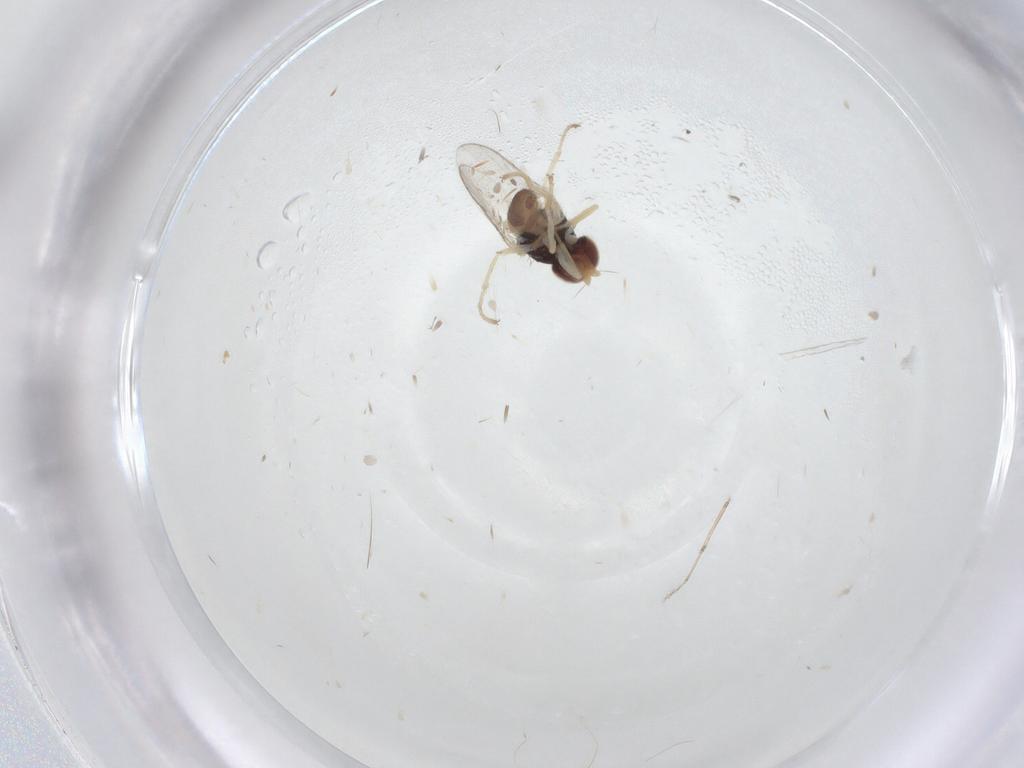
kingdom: Animalia
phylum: Arthropoda
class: Insecta
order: Diptera
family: Chloropidae
